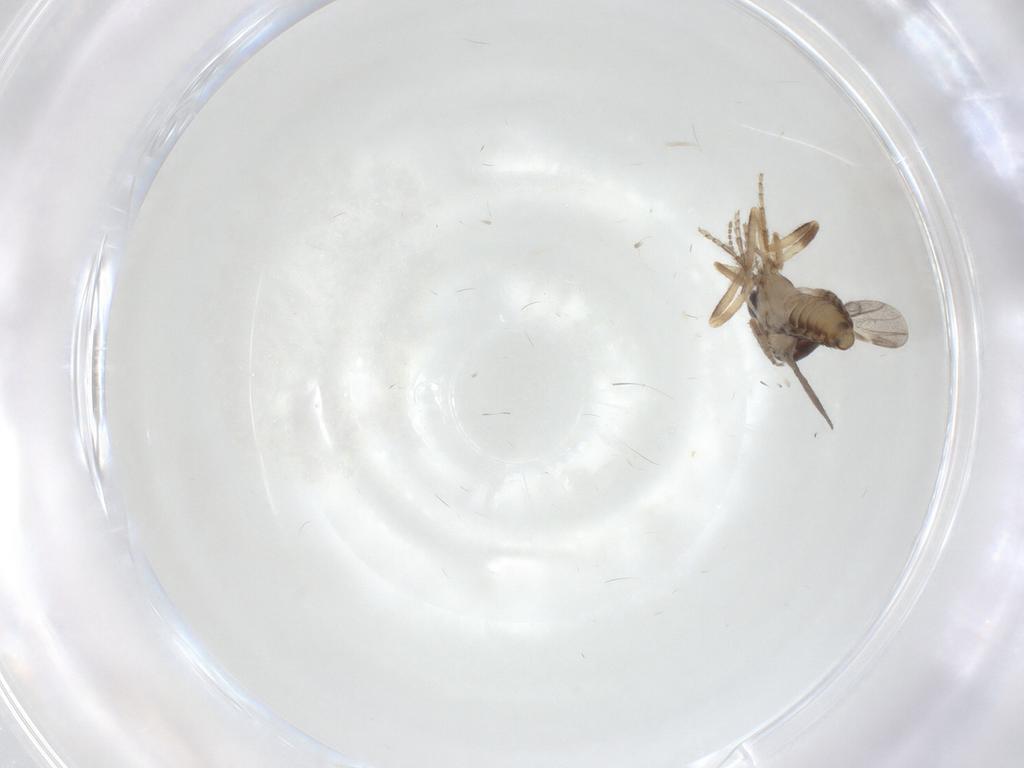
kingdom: Animalia
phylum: Arthropoda
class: Insecta
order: Diptera
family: Ceratopogonidae
